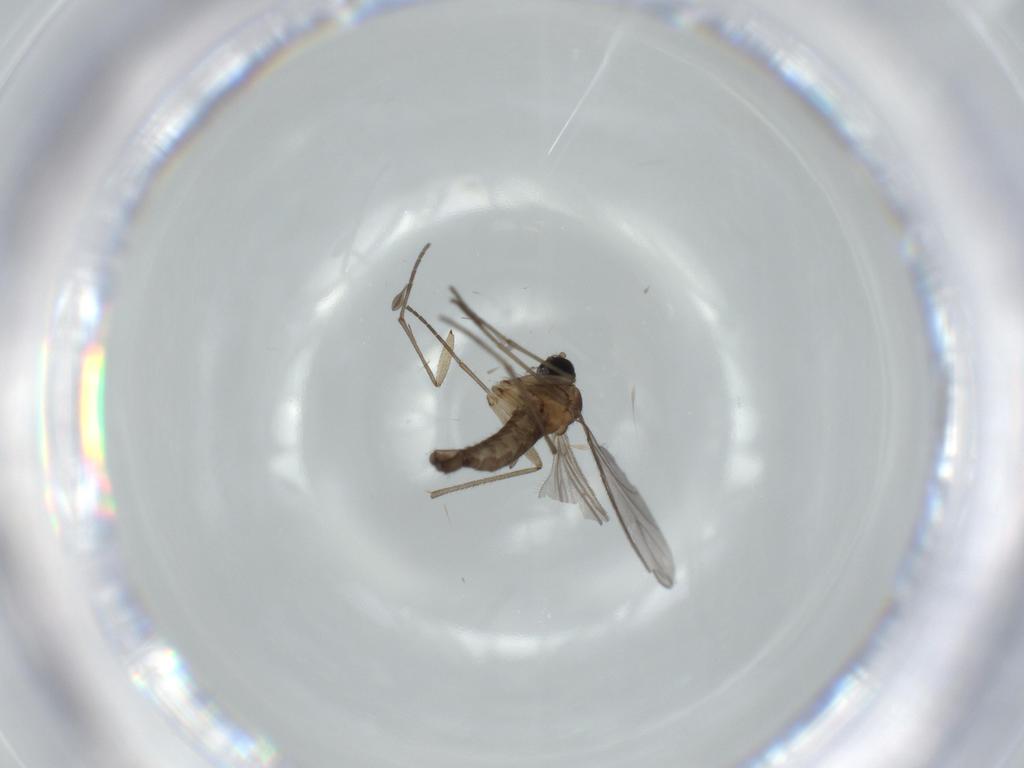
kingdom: Animalia
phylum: Arthropoda
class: Insecta
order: Diptera
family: Sciaridae
